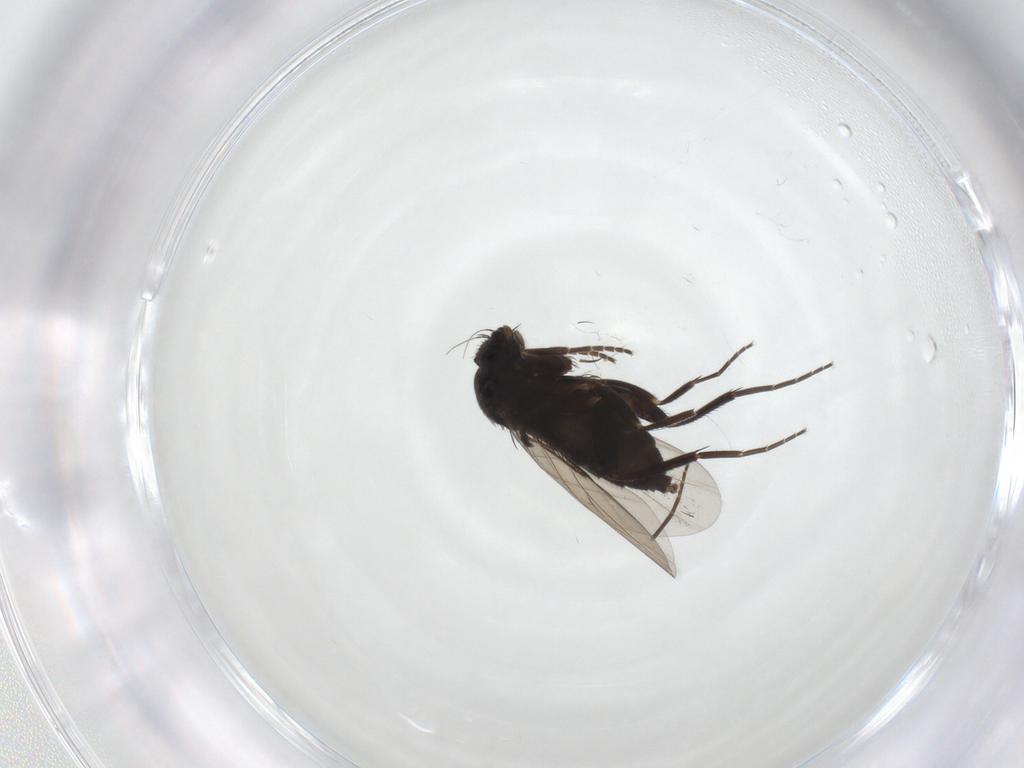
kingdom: Animalia
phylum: Arthropoda
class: Insecta
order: Diptera
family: Phoridae
